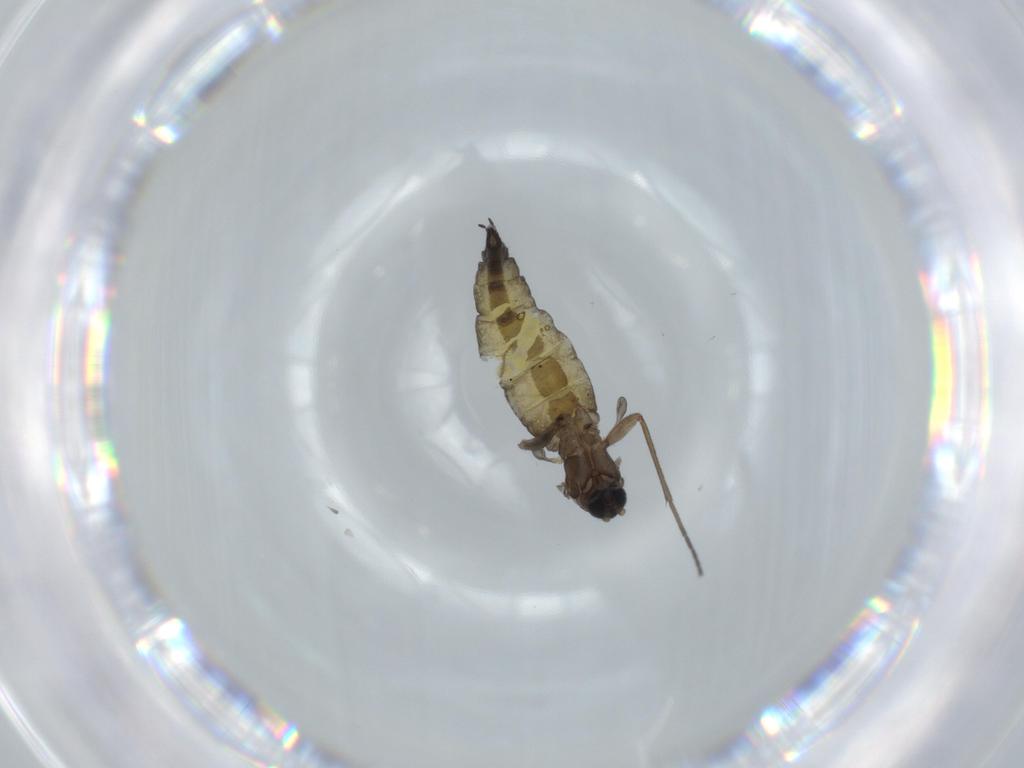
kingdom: Animalia
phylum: Arthropoda
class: Insecta
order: Diptera
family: Sciaridae
